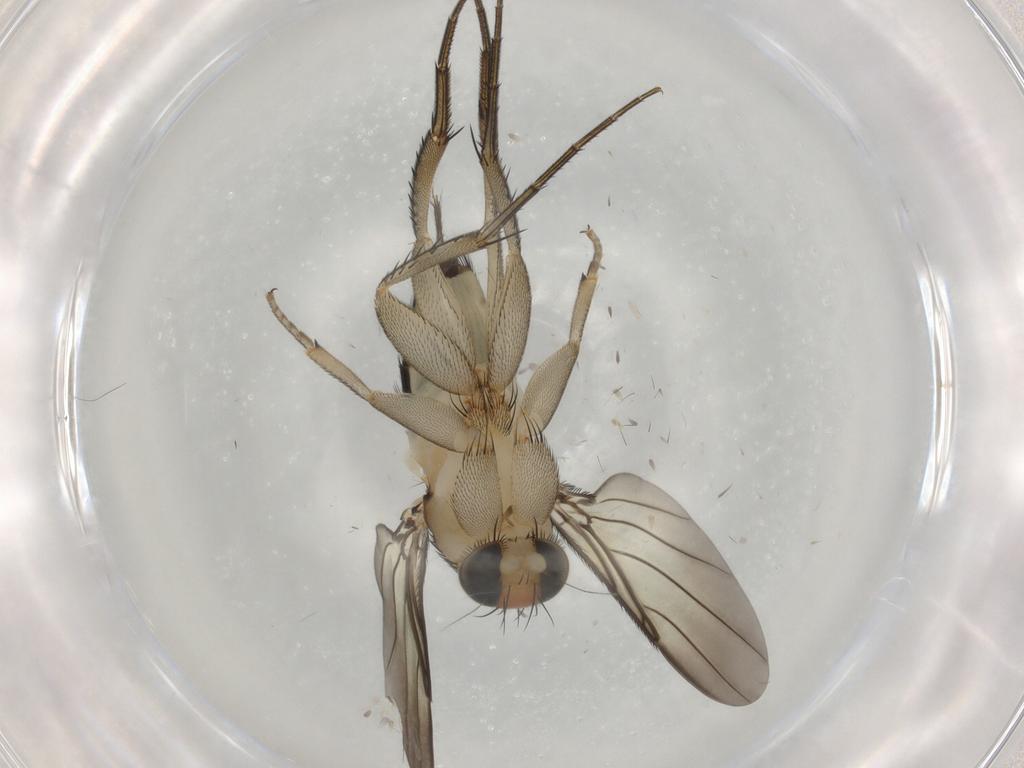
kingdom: Animalia
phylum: Arthropoda
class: Insecta
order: Diptera
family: Phoridae
